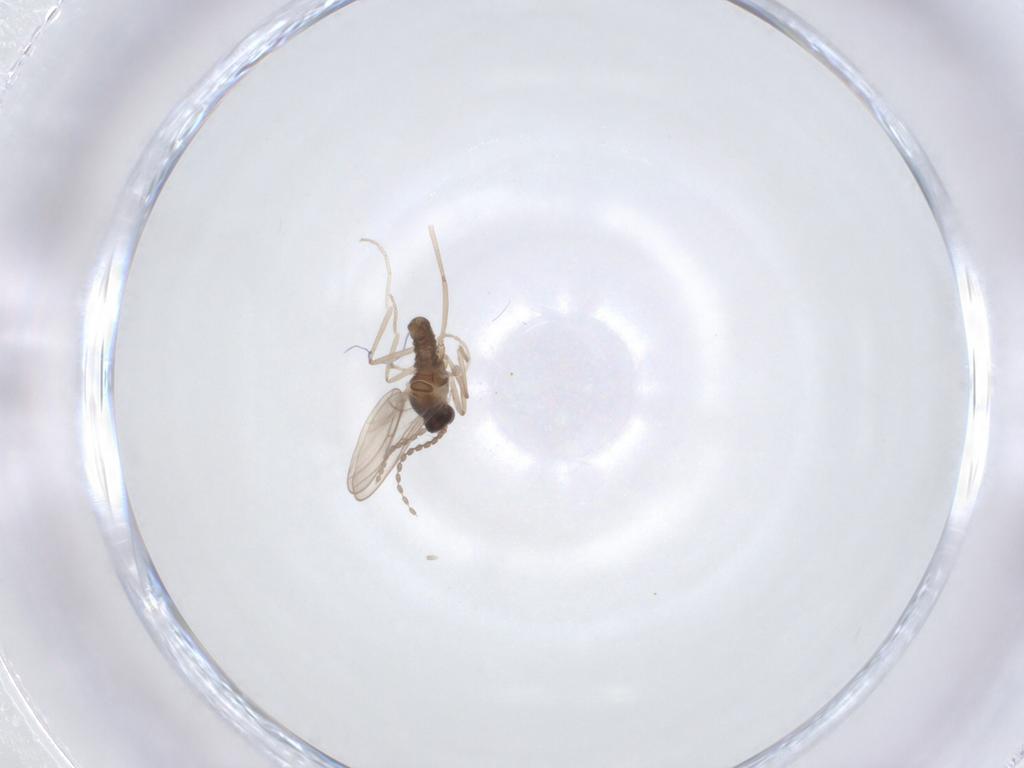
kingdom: Animalia
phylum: Arthropoda
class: Insecta
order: Diptera
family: Cecidomyiidae
